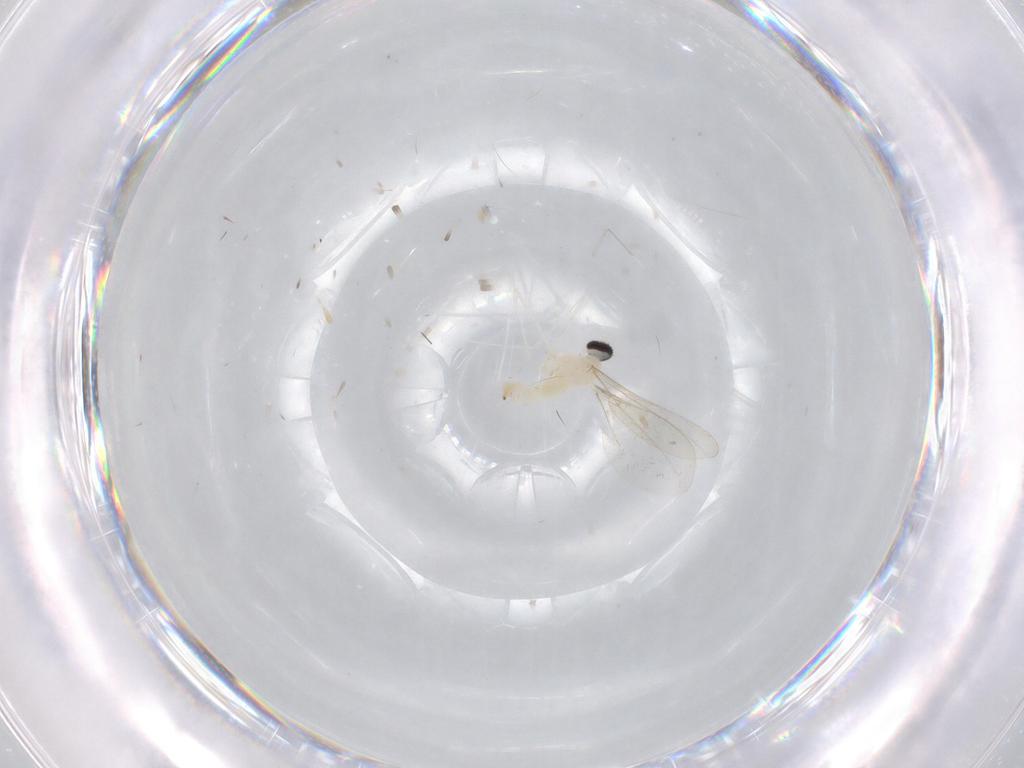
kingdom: Animalia
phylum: Arthropoda
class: Insecta
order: Diptera
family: Cecidomyiidae
